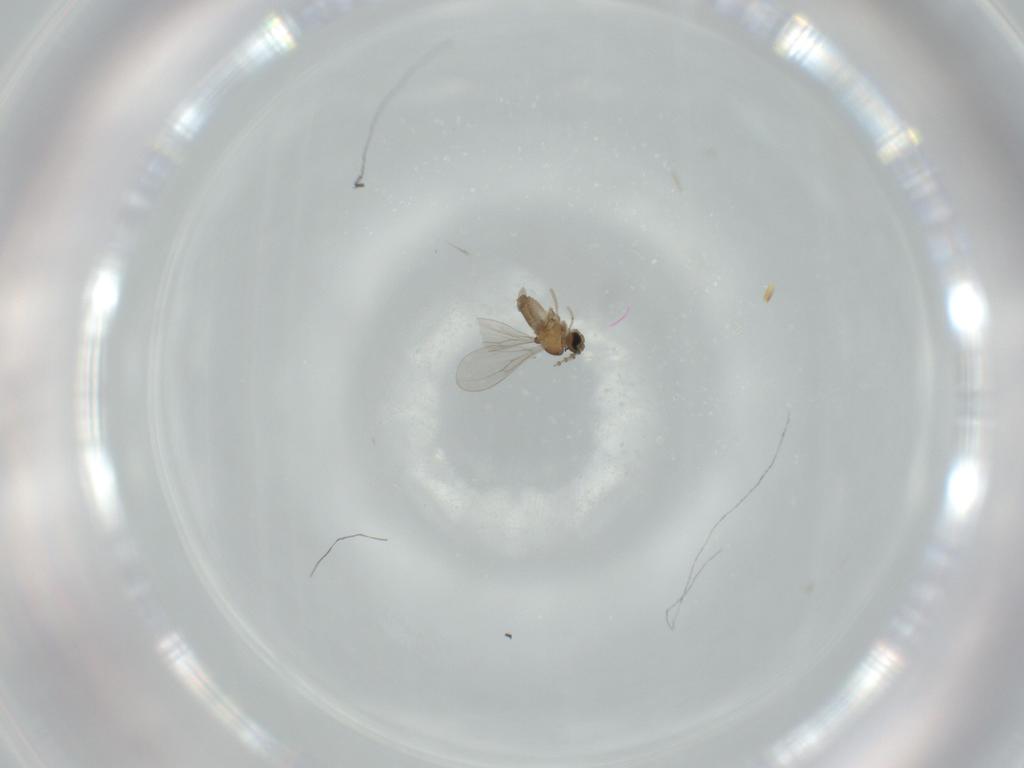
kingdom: Animalia
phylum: Arthropoda
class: Insecta
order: Diptera
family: Cecidomyiidae
